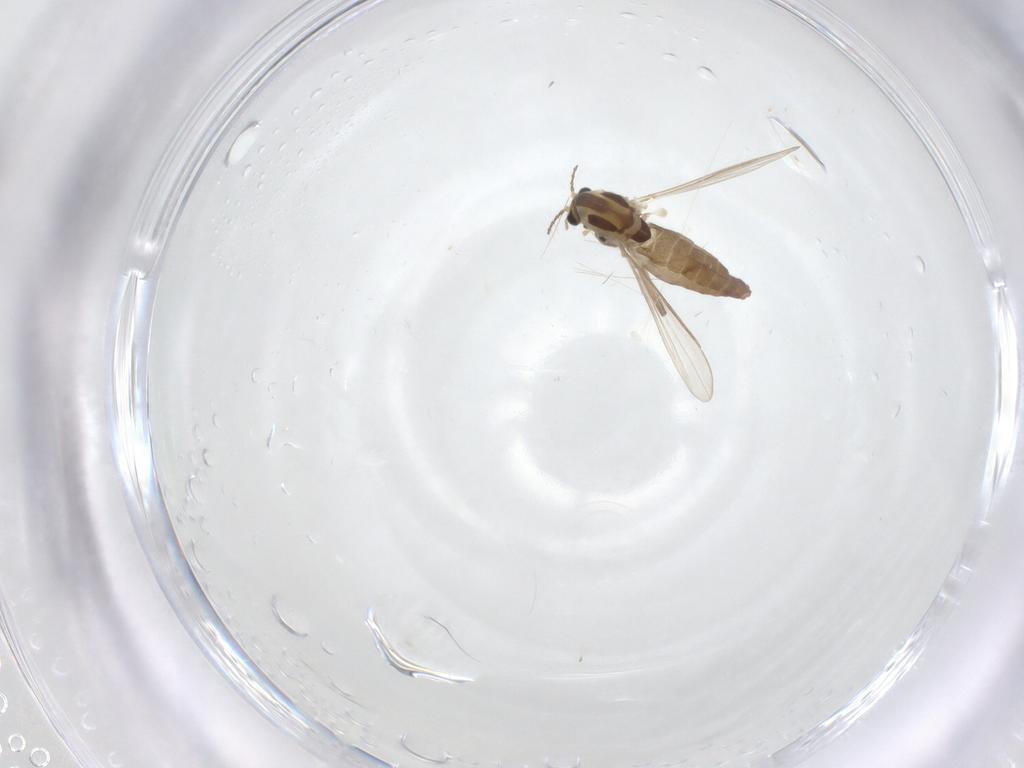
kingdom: Animalia
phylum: Arthropoda
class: Insecta
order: Diptera
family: Chironomidae
